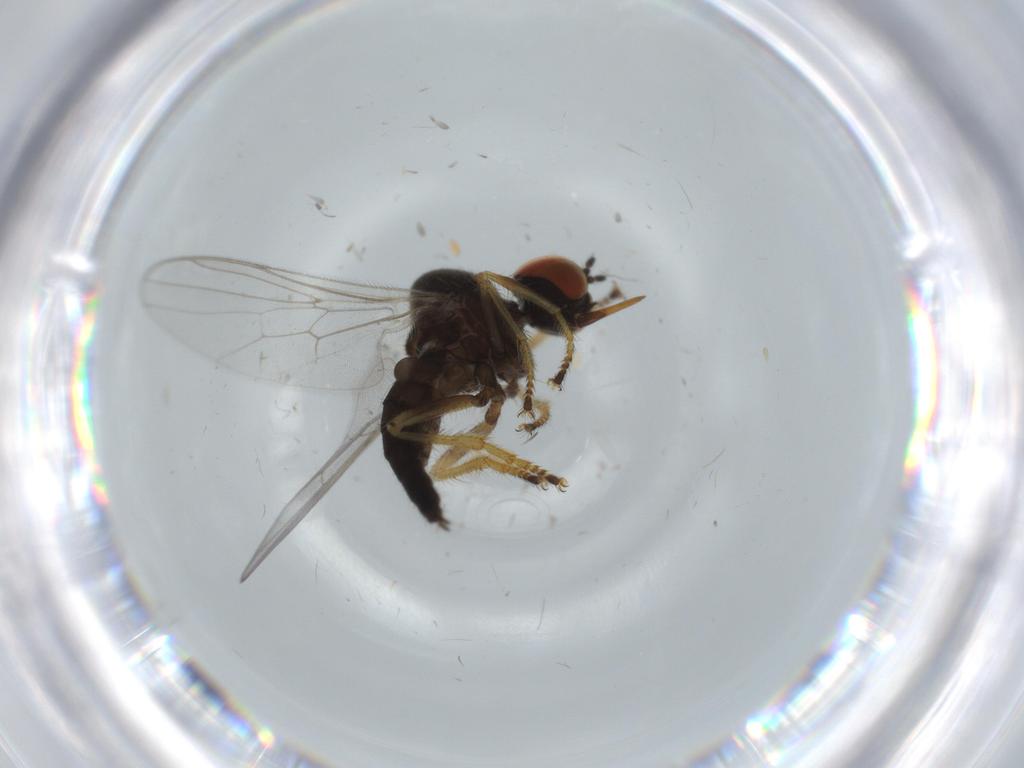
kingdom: Animalia
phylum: Arthropoda
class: Insecta
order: Diptera
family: Cecidomyiidae
